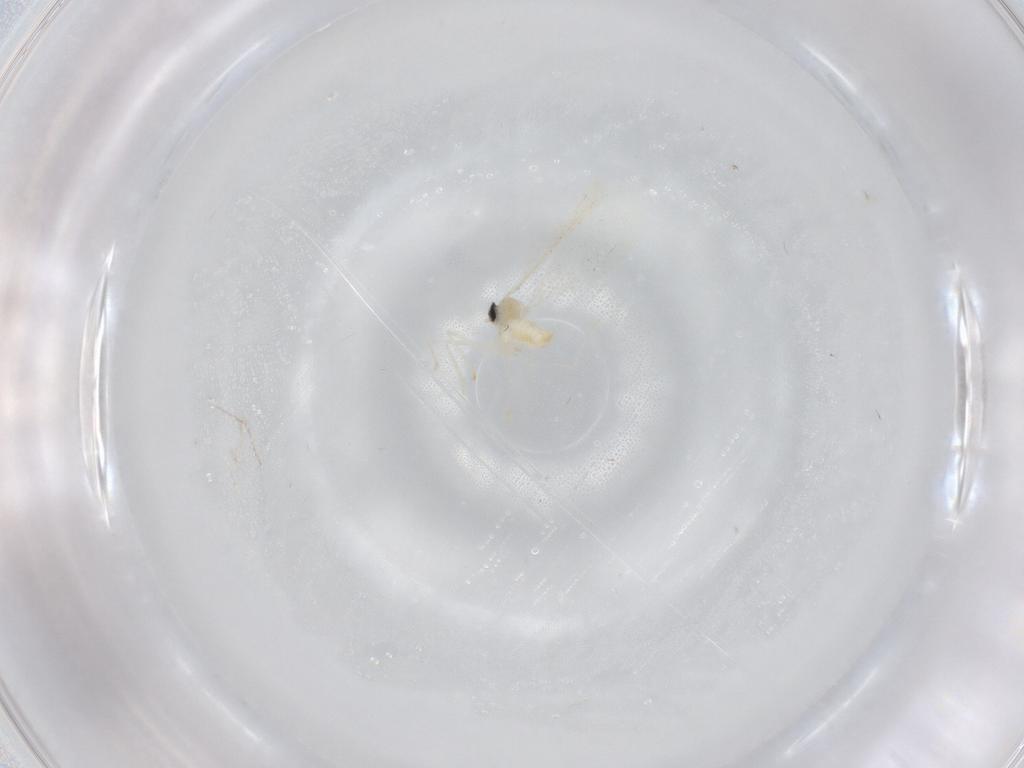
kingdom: Animalia
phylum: Arthropoda
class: Insecta
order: Diptera
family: Cecidomyiidae
